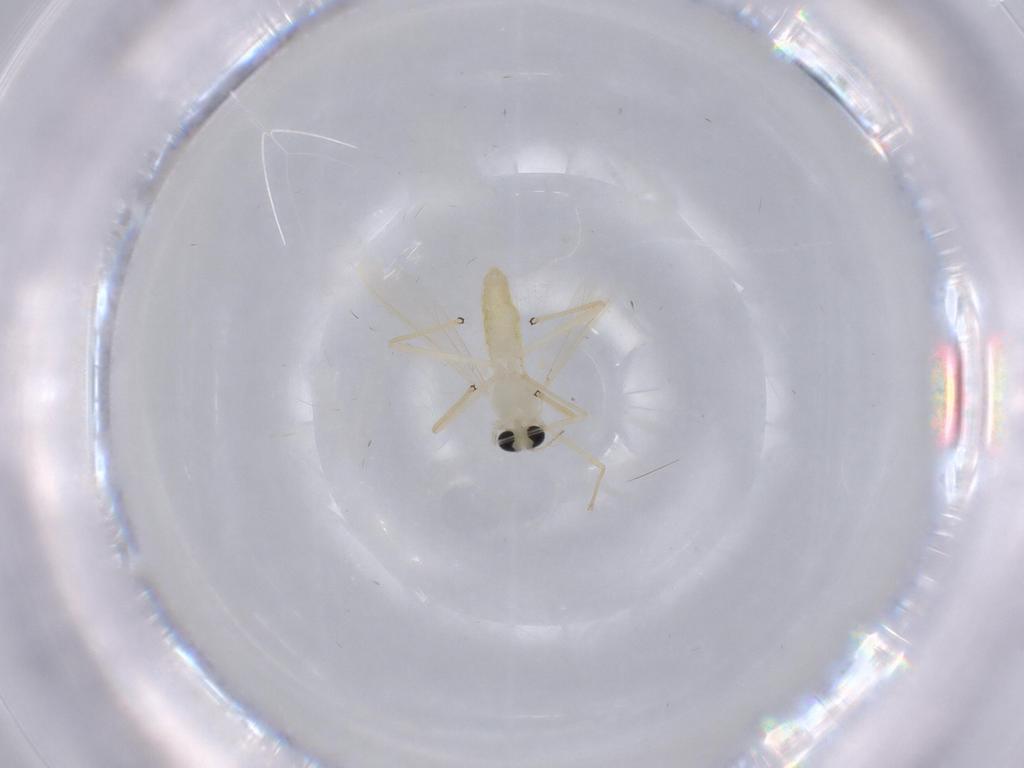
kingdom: Animalia
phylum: Arthropoda
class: Insecta
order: Diptera
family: Chironomidae
